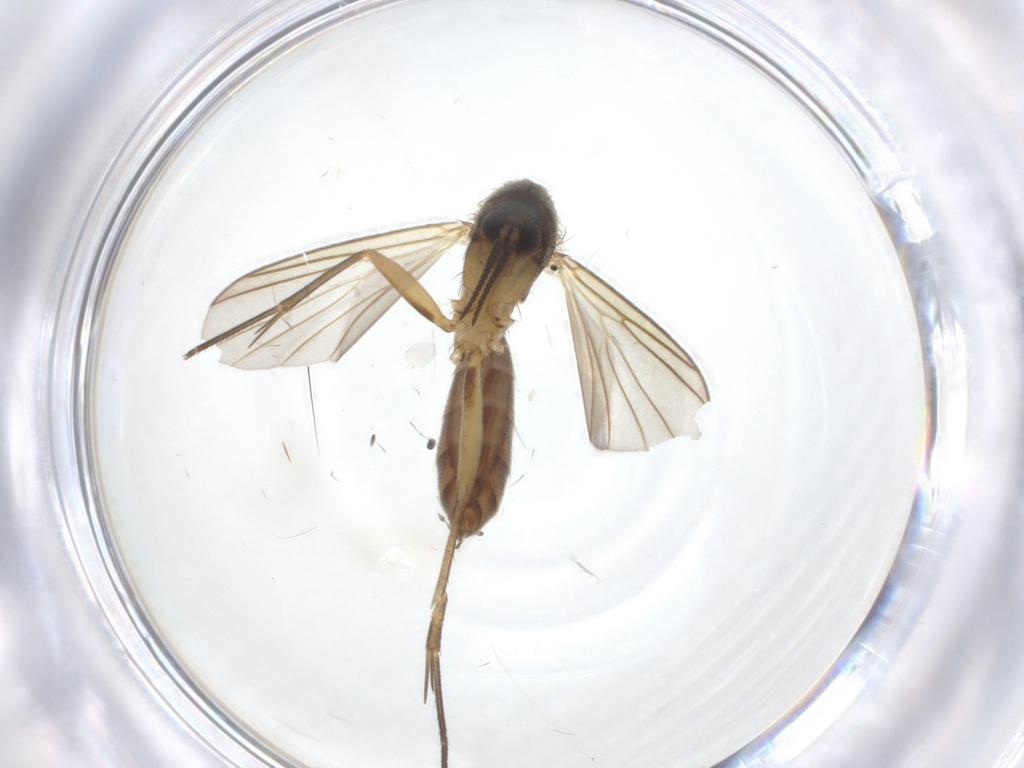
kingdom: Animalia
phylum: Arthropoda
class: Insecta
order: Diptera
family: Cecidomyiidae
